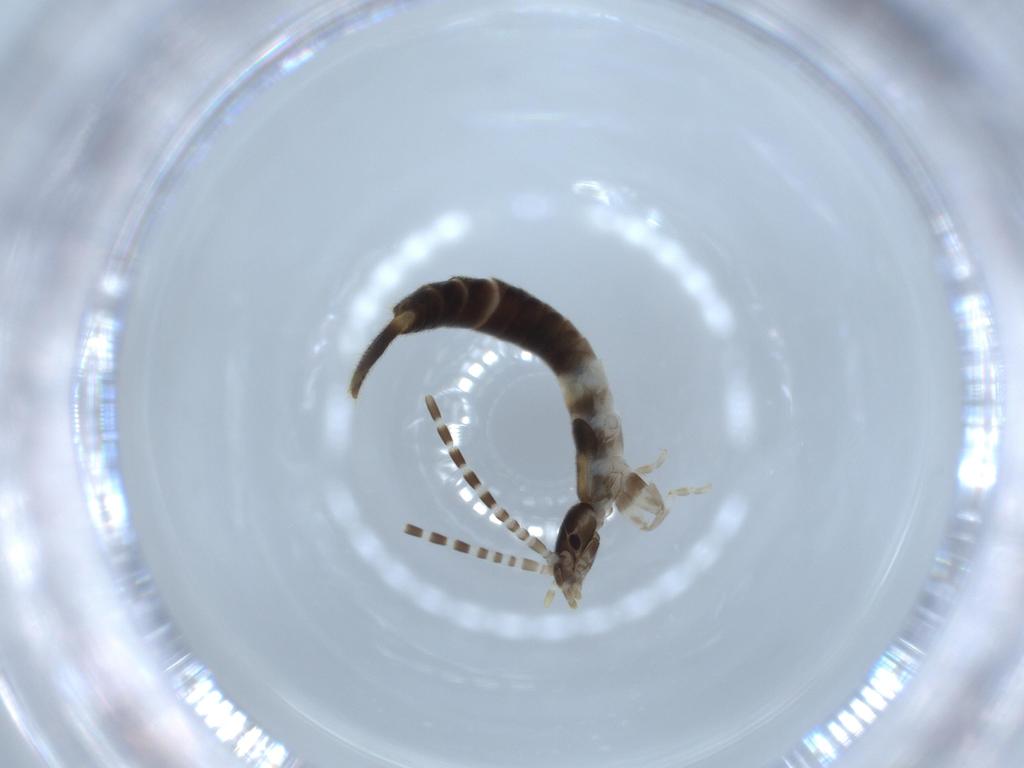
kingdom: Animalia
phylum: Arthropoda
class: Insecta
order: Dermaptera
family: Forficulidae
